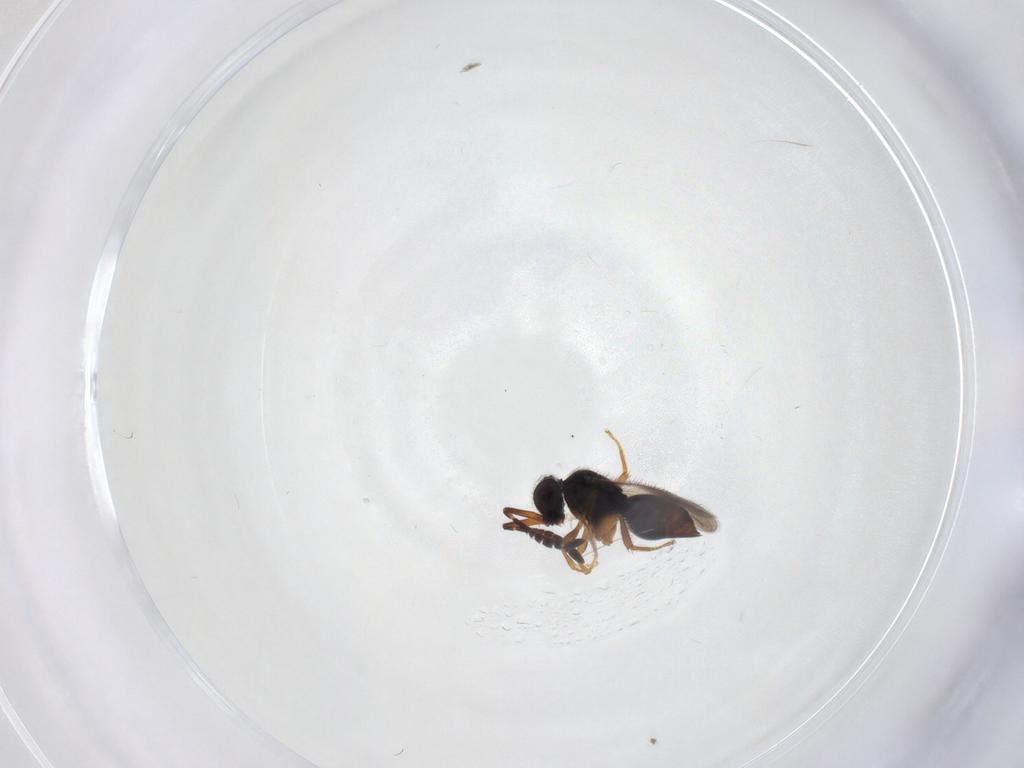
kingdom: Animalia
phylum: Arthropoda
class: Insecta
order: Hymenoptera
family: Ceraphronidae
